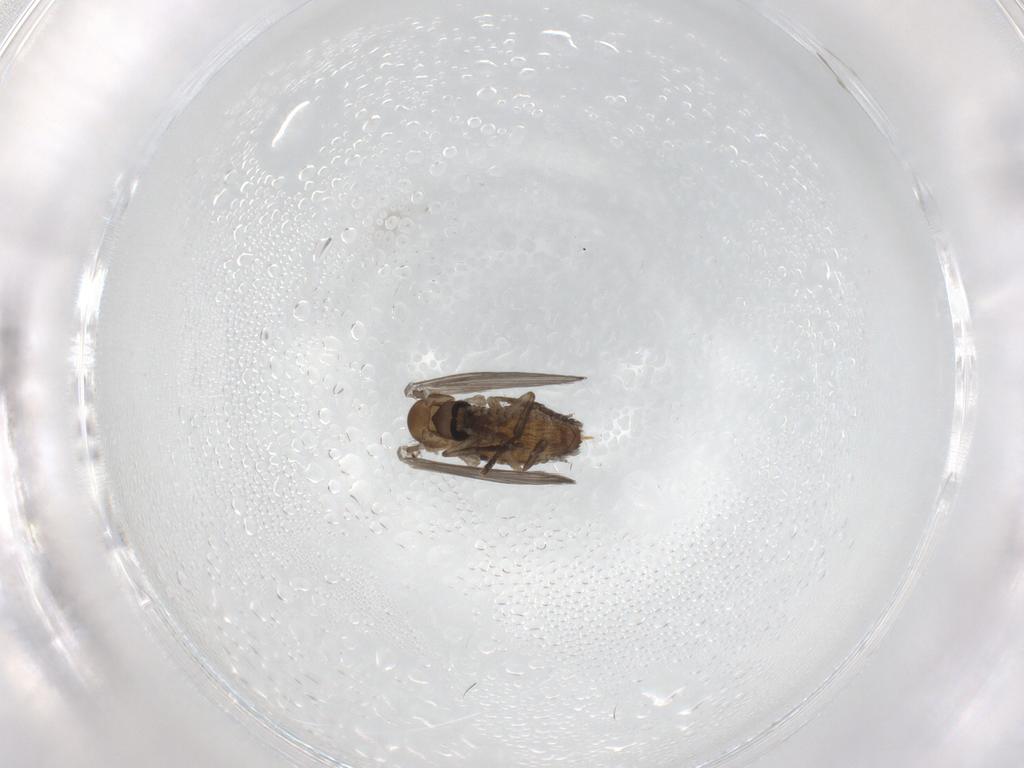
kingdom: Animalia
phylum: Arthropoda
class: Insecta
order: Diptera
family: Psychodidae
